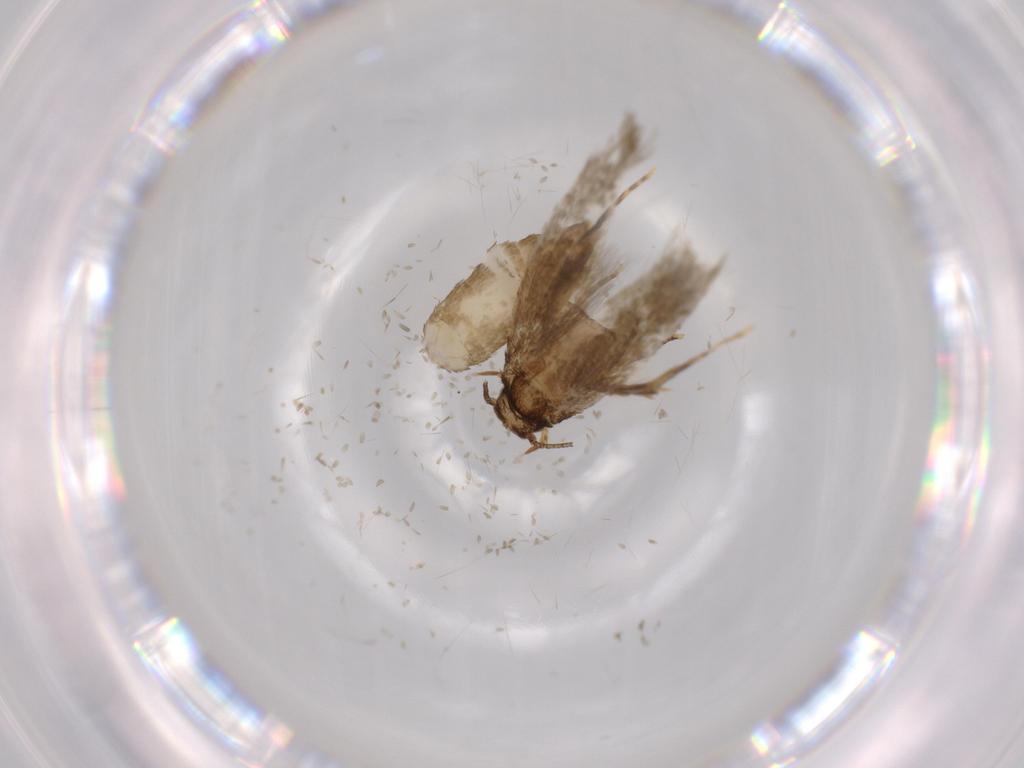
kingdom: Animalia
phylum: Arthropoda
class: Insecta
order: Lepidoptera
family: Tineidae
